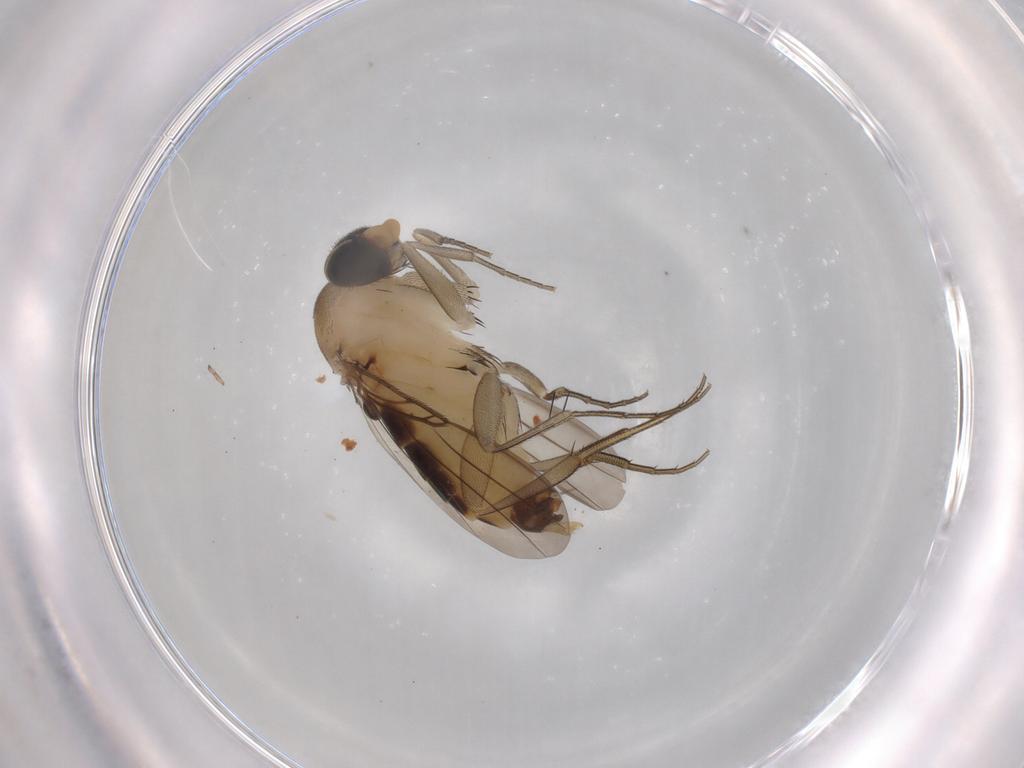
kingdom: Animalia
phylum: Arthropoda
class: Insecta
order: Diptera
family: Phoridae
